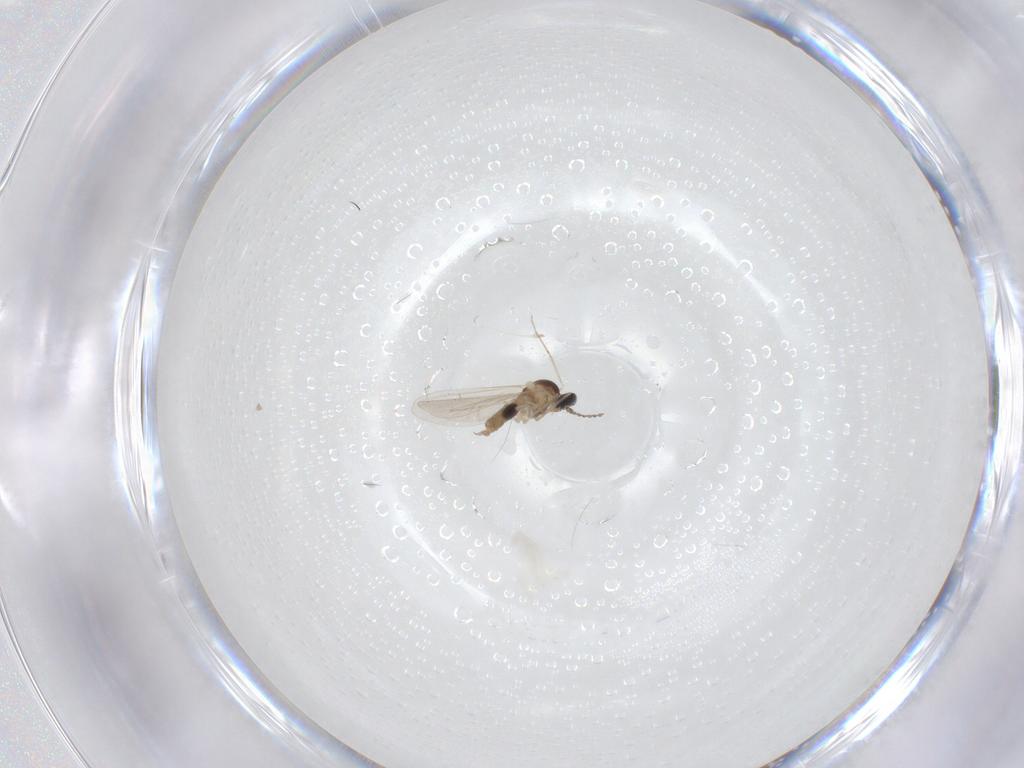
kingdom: Animalia
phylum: Arthropoda
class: Insecta
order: Diptera
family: Cecidomyiidae
